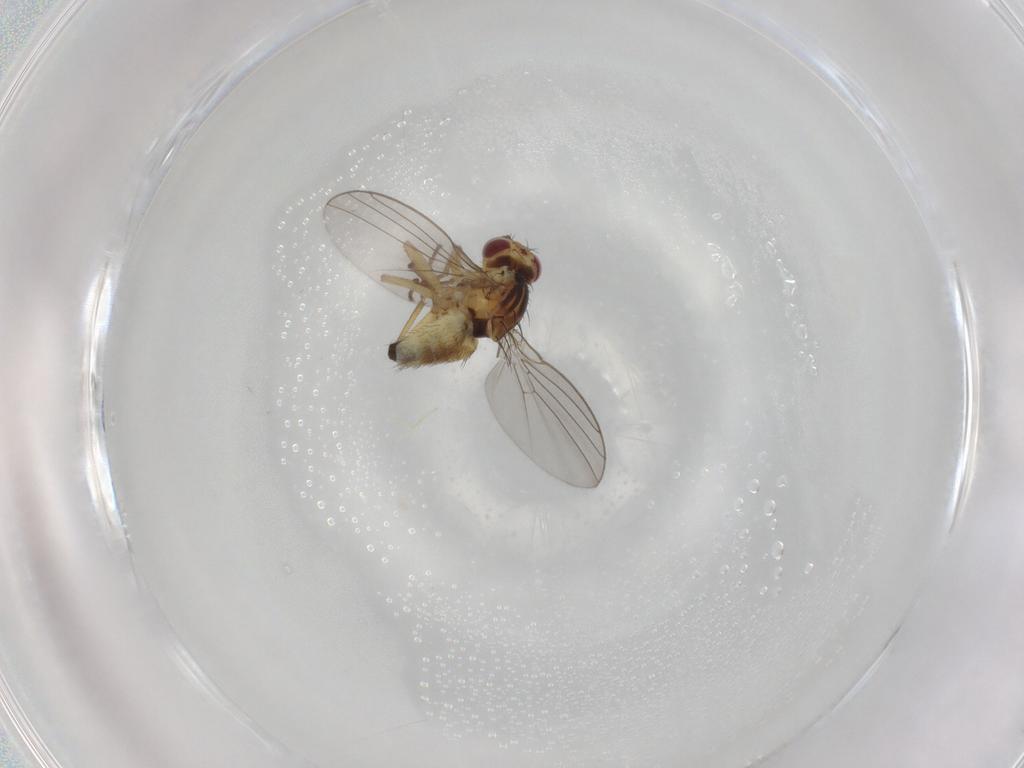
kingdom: Animalia
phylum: Arthropoda
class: Insecta
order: Diptera
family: Agromyzidae
